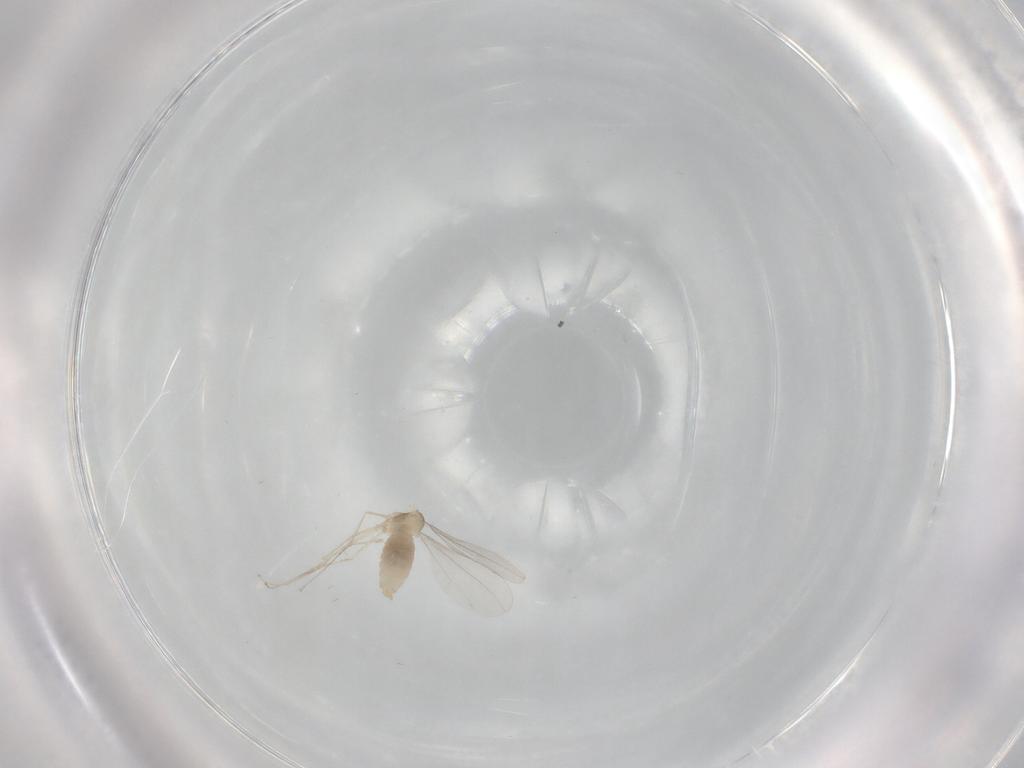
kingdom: Animalia
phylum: Arthropoda
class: Insecta
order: Diptera
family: Cecidomyiidae
